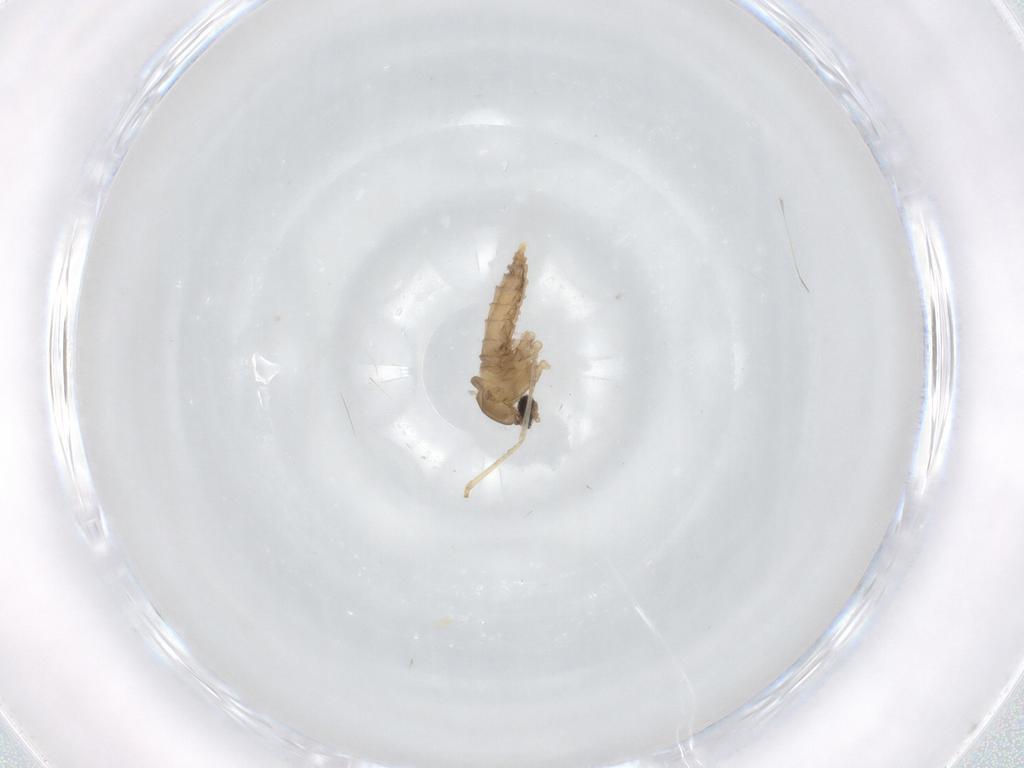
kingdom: Animalia
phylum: Arthropoda
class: Insecta
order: Diptera
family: Cecidomyiidae
